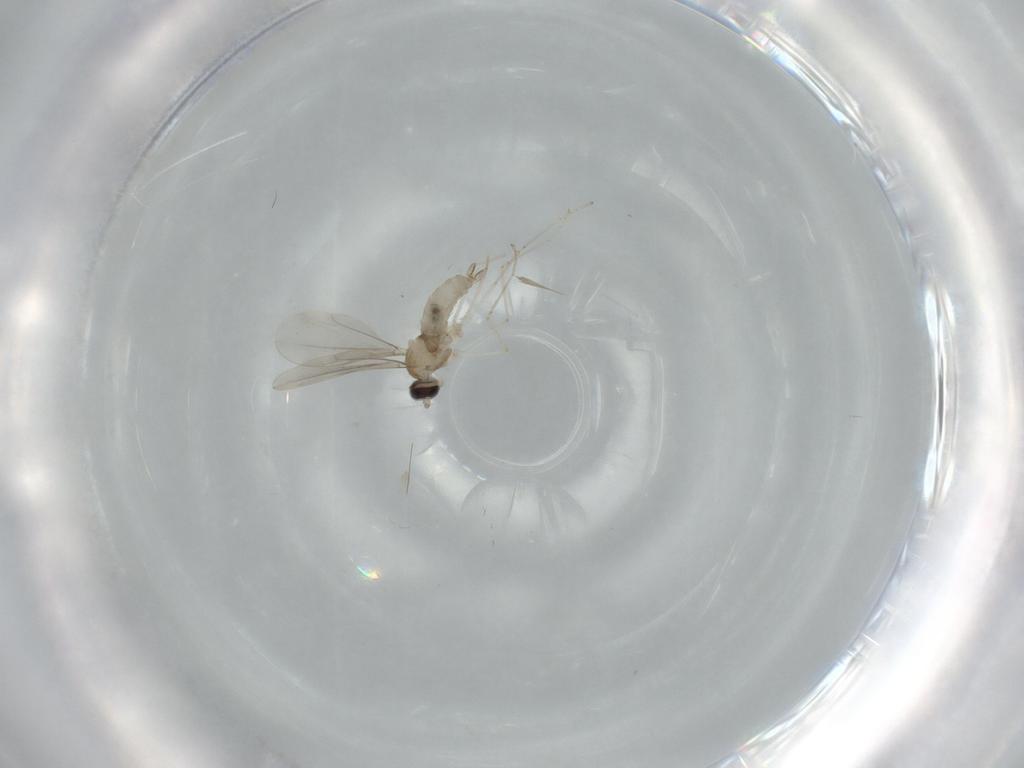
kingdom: Animalia
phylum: Arthropoda
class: Insecta
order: Diptera
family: Cecidomyiidae
